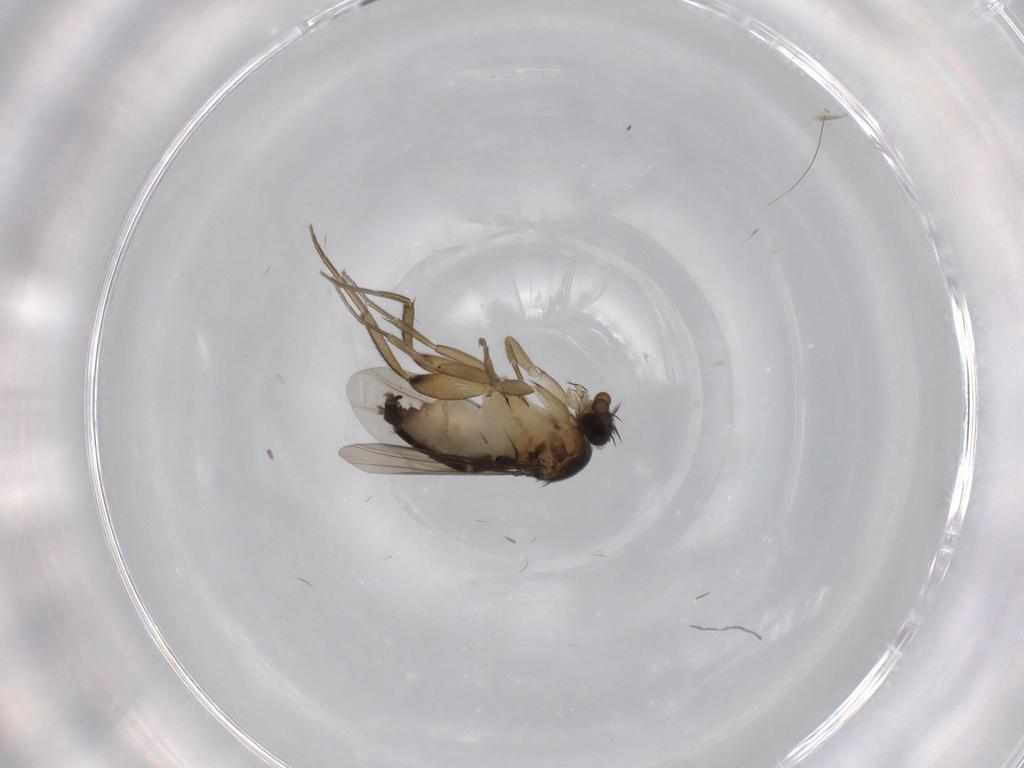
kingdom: Animalia
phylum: Arthropoda
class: Insecta
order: Diptera
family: Phoridae
